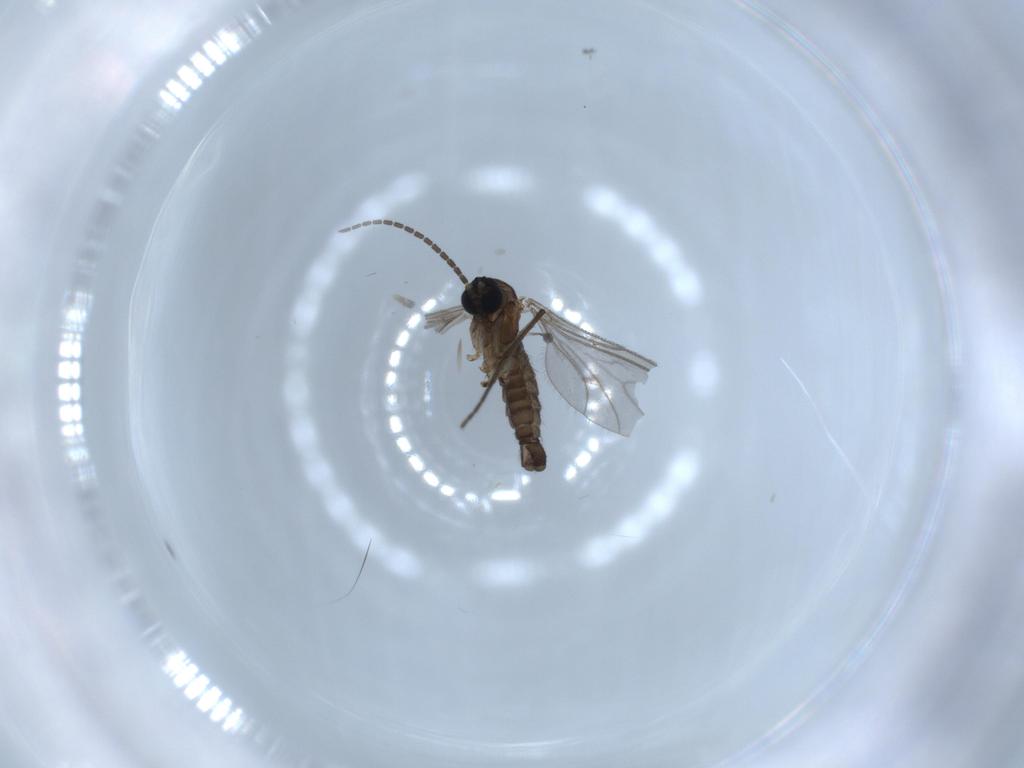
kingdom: Animalia
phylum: Arthropoda
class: Insecta
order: Diptera
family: Sciaridae
